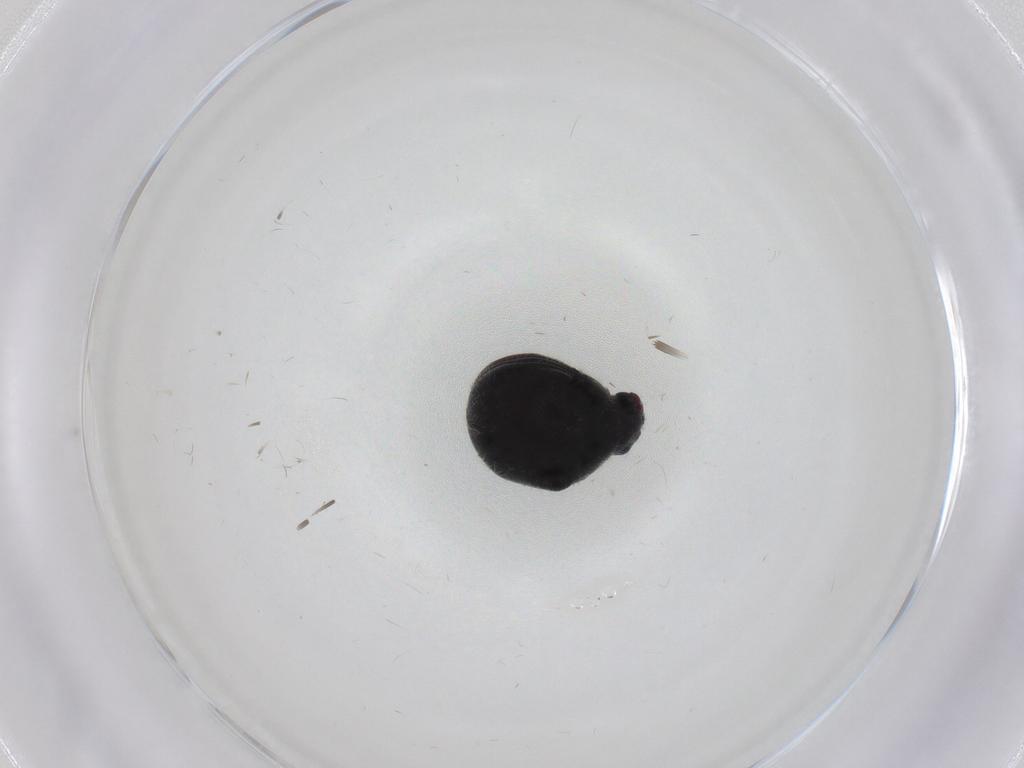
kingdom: Animalia
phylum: Arthropoda
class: Insecta
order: Coleoptera
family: Ptinidae
